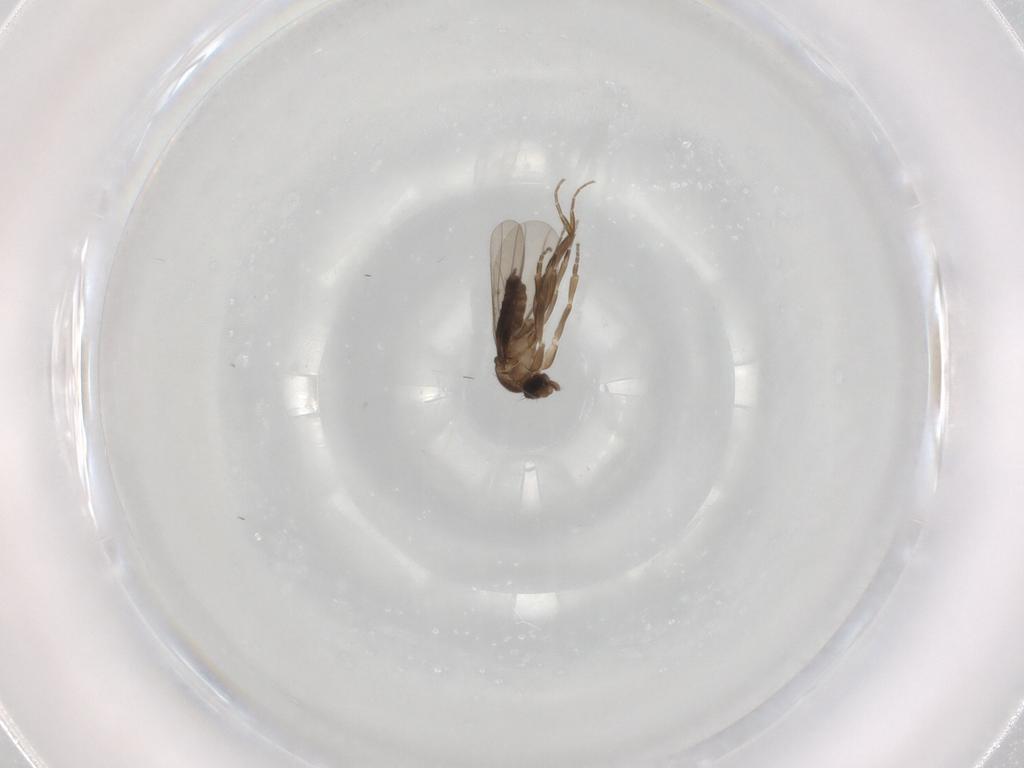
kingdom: Animalia
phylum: Arthropoda
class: Insecta
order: Diptera
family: Phoridae
